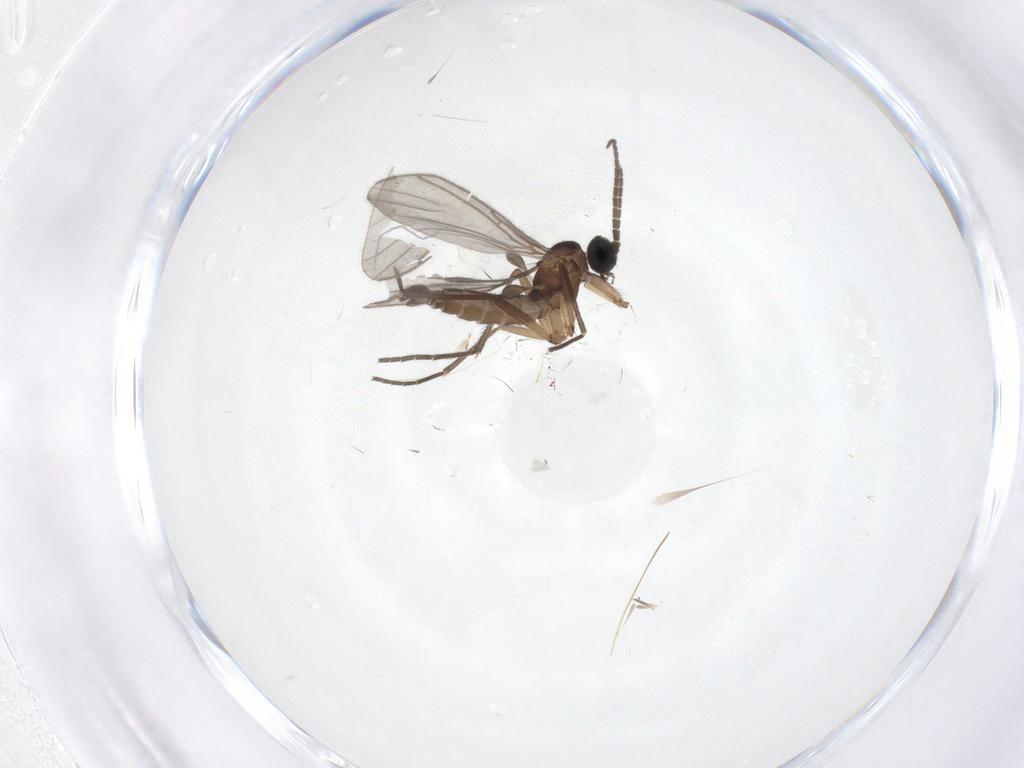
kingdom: Animalia
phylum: Arthropoda
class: Insecta
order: Diptera
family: Sciaridae
